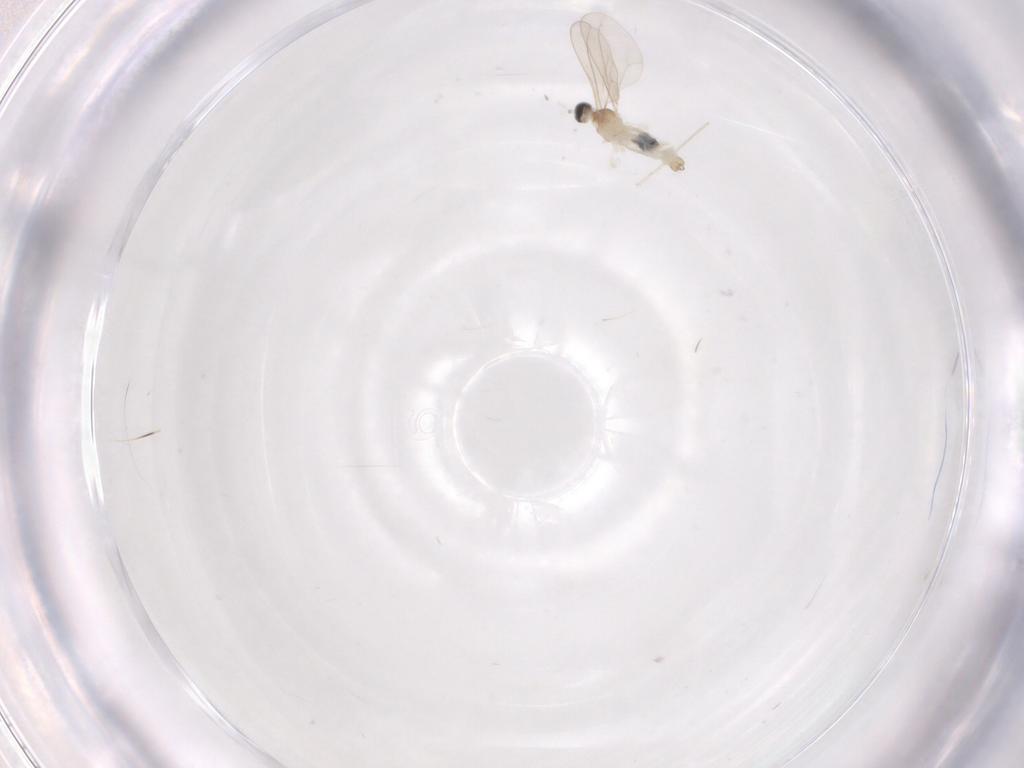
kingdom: Animalia
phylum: Arthropoda
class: Insecta
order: Diptera
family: Cecidomyiidae
